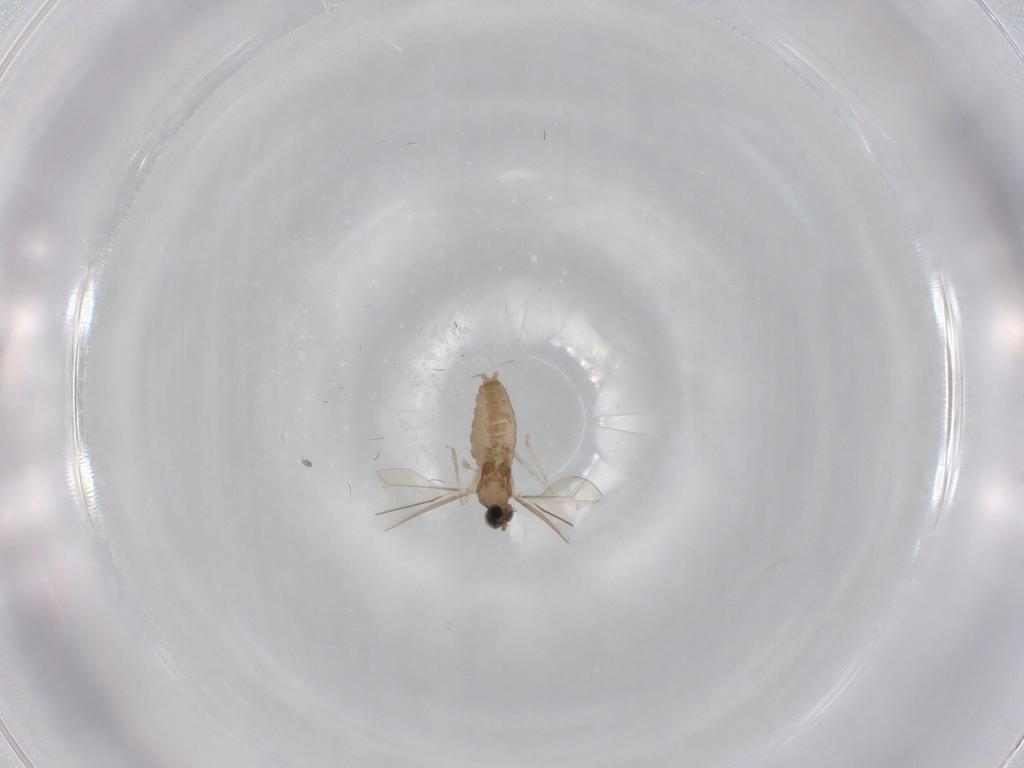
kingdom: Animalia
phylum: Arthropoda
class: Insecta
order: Diptera
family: Cecidomyiidae
